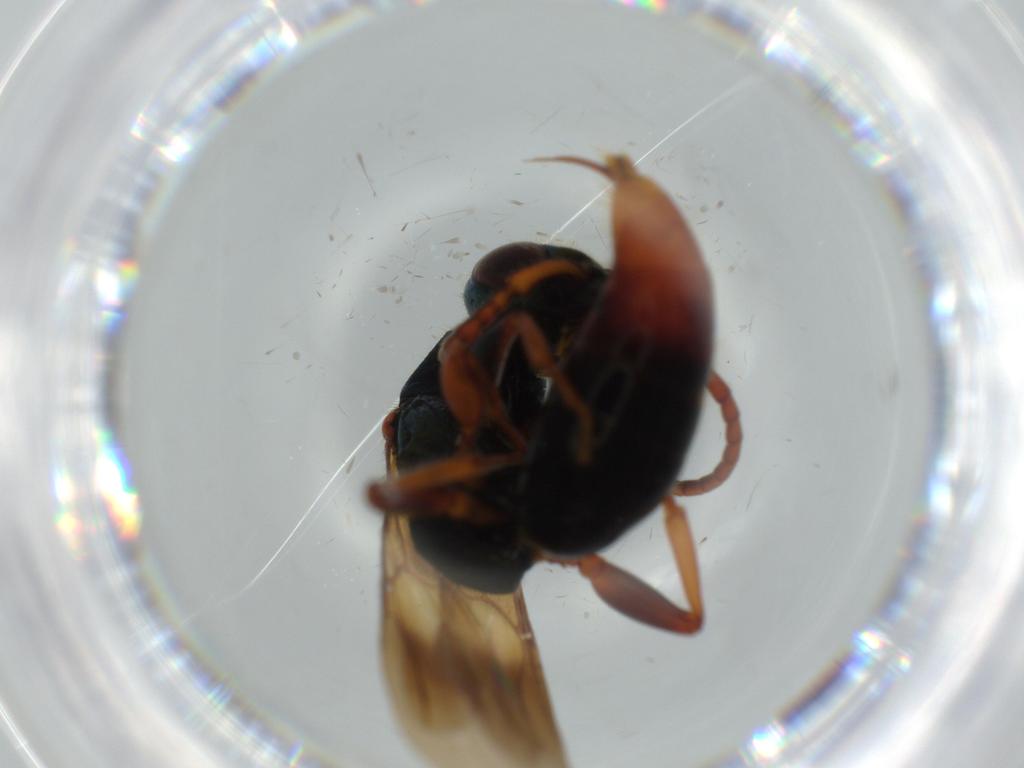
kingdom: Animalia
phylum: Arthropoda
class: Insecta
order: Hymenoptera
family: Bethylidae
